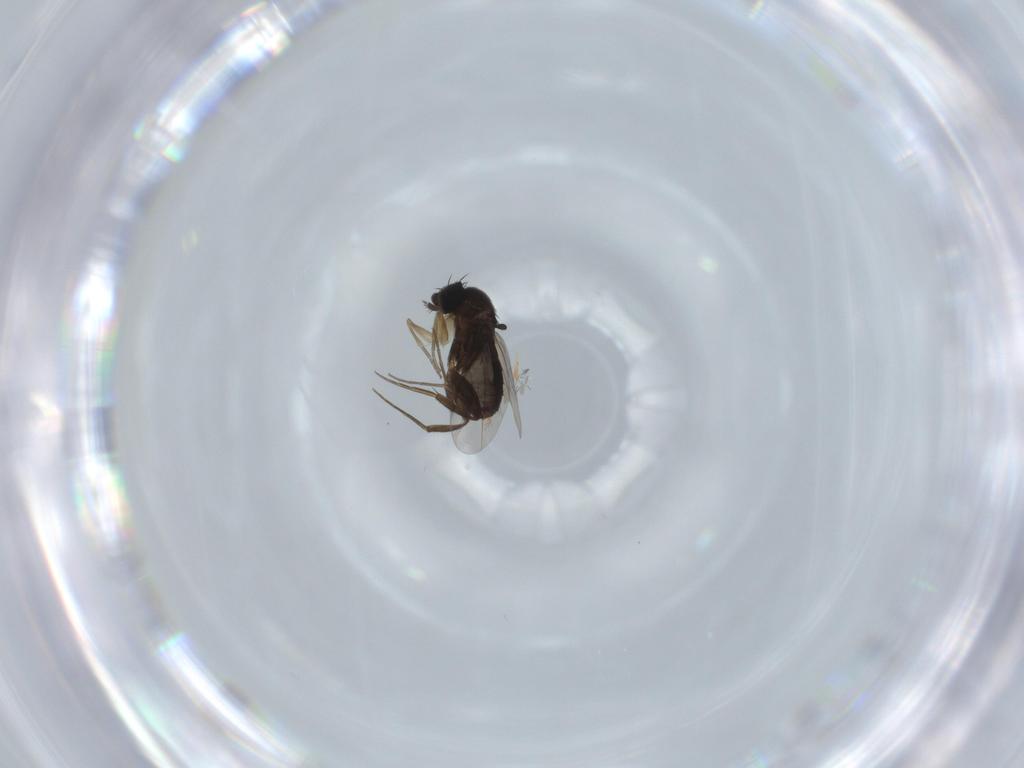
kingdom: Animalia
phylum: Arthropoda
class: Insecta
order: Diptera
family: Phoridae
